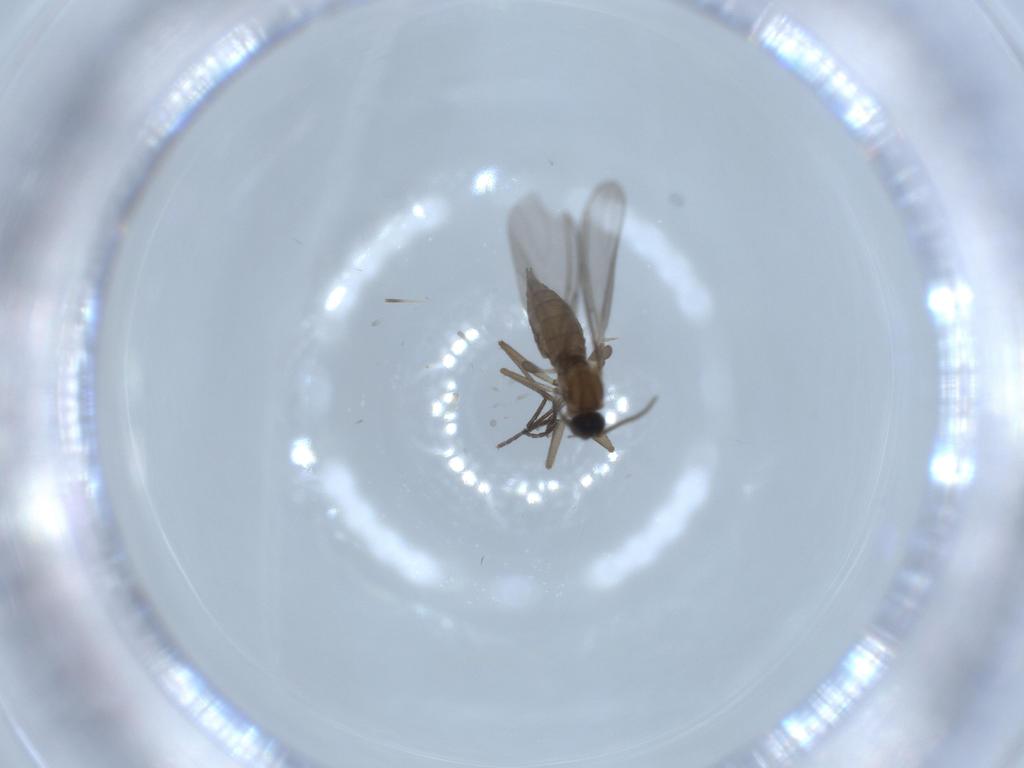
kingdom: Animalia
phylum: Arthropoda
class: Insecta
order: Diptera
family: Sciaridae
